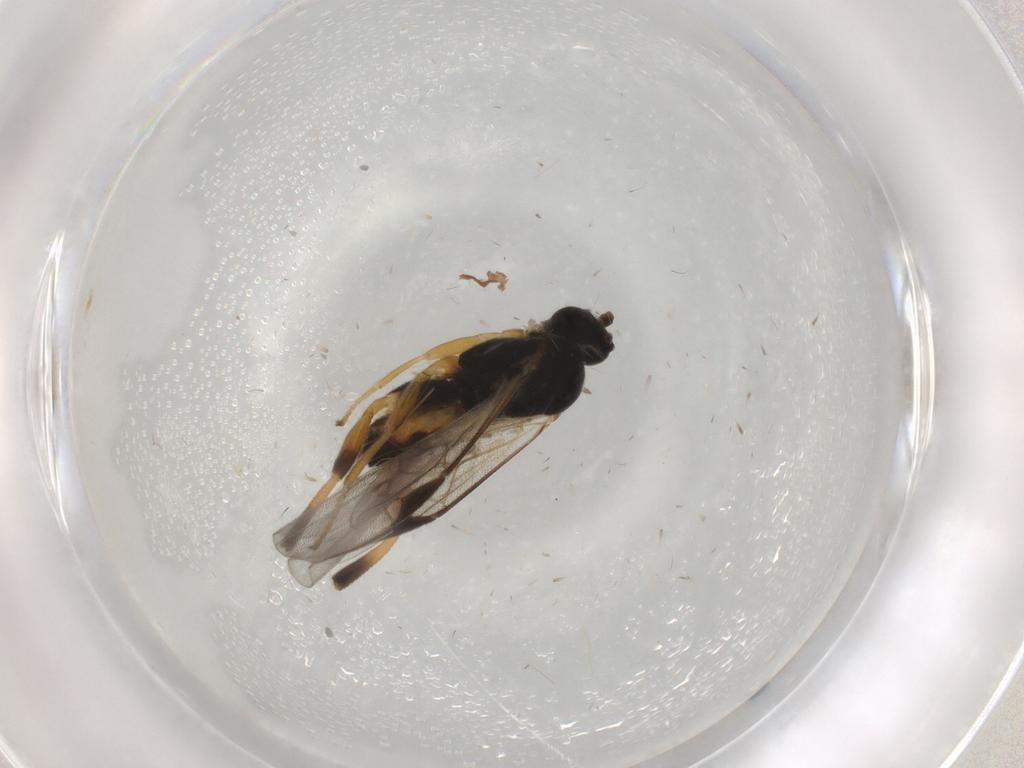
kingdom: Animalia
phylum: Arthropoda
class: Insecta
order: Hymenoptera
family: Braconidae
